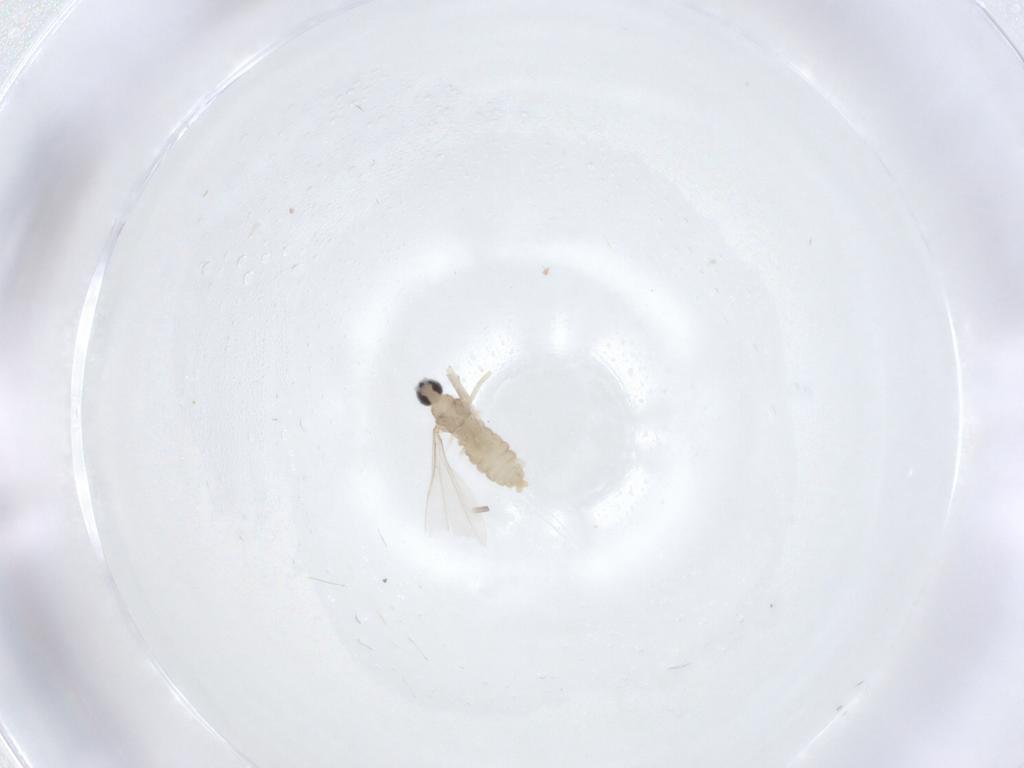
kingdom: Animalia
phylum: Arthropoda
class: Insecta
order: Diptera
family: Cecidomyiidae
